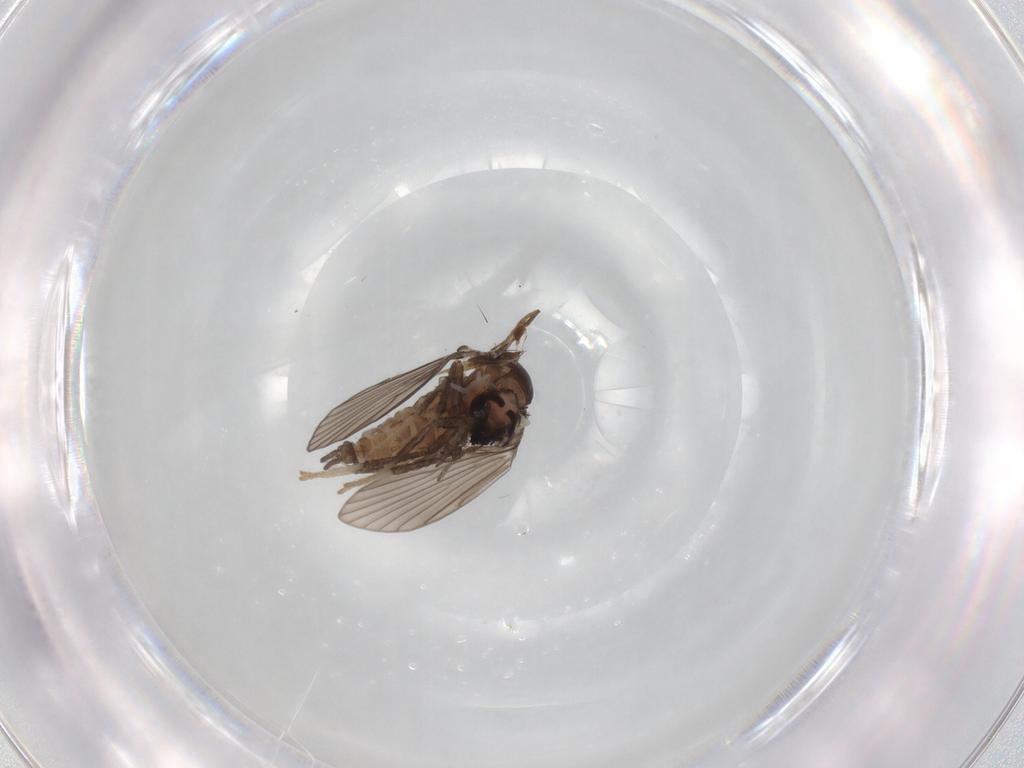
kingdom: Animalia
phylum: Arthropoda
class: Insecta
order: Diptera
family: Psychodidae
